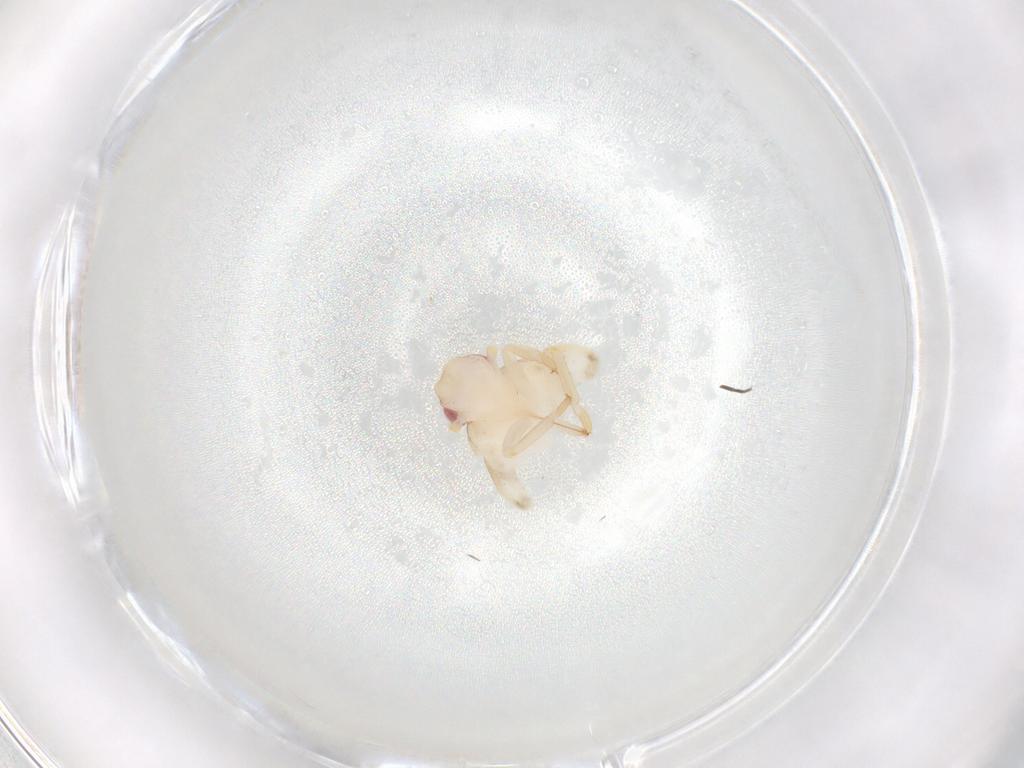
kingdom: Animalia
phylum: Arthropoda
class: Insecta
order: Hemiptera
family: Flatidae
